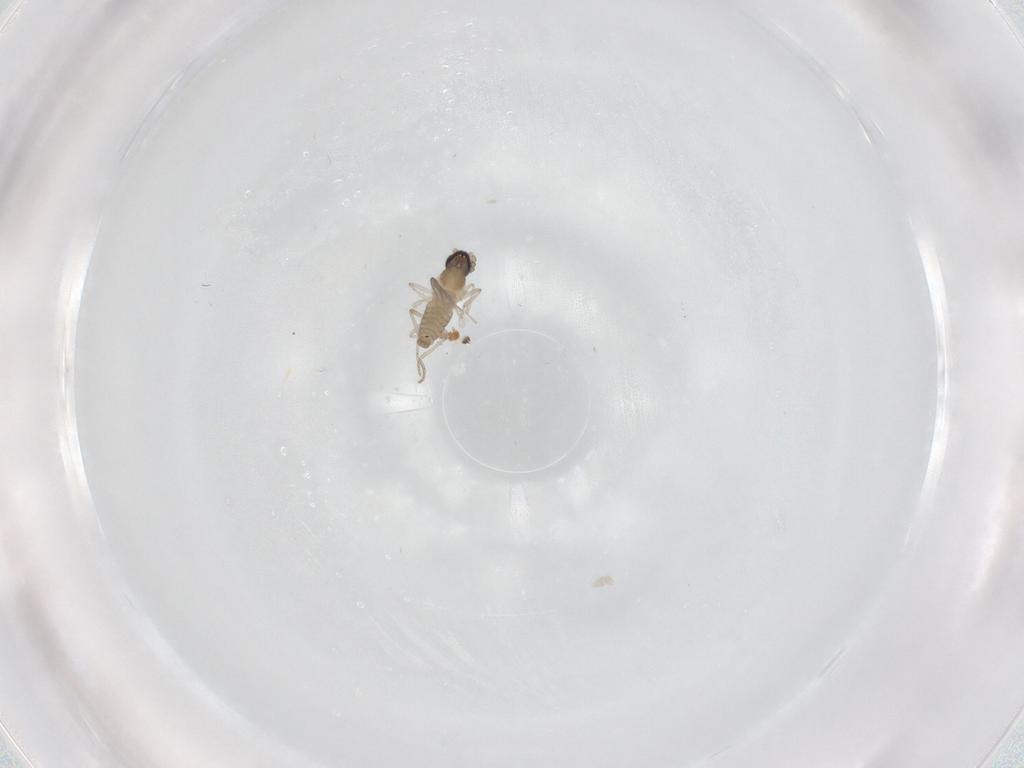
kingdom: Animalia
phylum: Arthropoda
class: Insecta
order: Diptera
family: Cecidomyiidae
